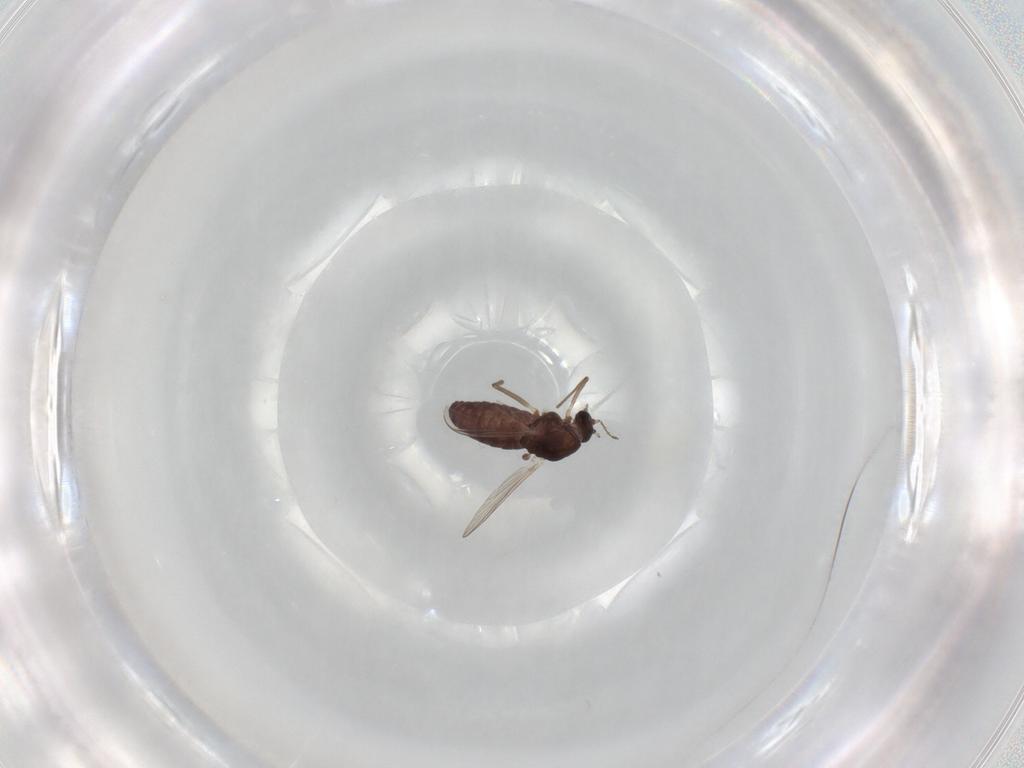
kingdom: Animalia
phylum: Arthropoda
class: Insecta
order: Diptera
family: Chironomidae
